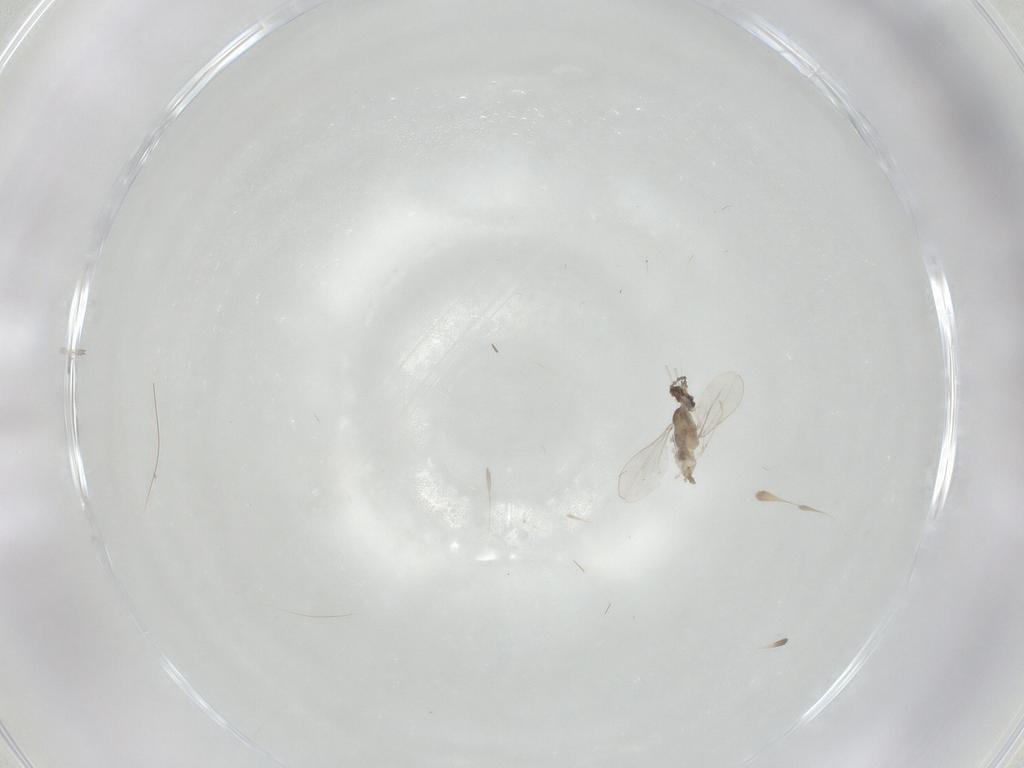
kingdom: Animalia
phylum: Arthropoda
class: Insecta
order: Diptera
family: Cecidomyiidae
